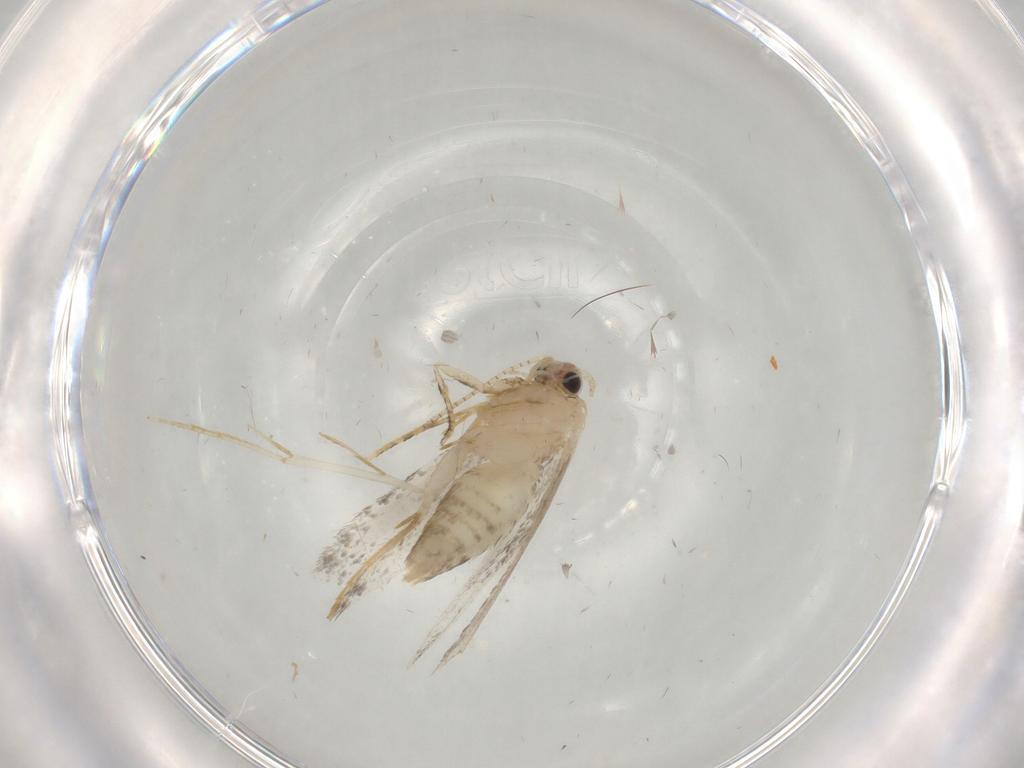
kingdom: Animalia
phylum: Arthropoda
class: Insecta
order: Lepidoptera
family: Tineidae
